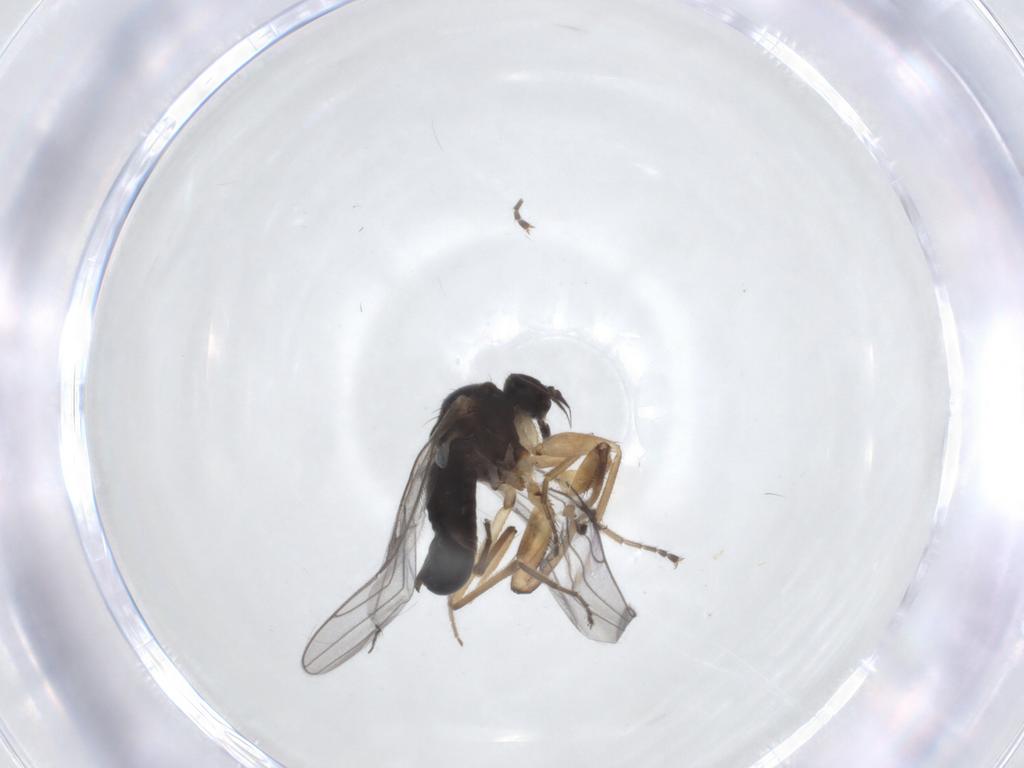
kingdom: Animalia
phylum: Arthropoda
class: Insecta
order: Diptera
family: Hybotidae
